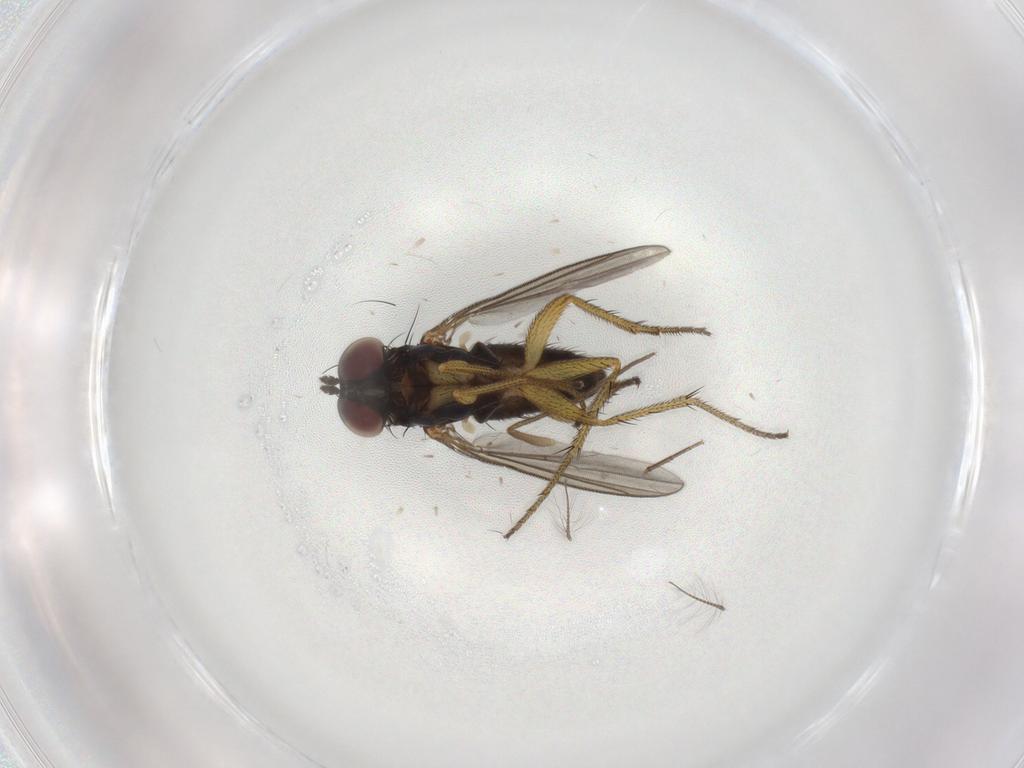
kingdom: Animalia
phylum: Arthropoda
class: Insecta
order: Diptera
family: Chironomidae
